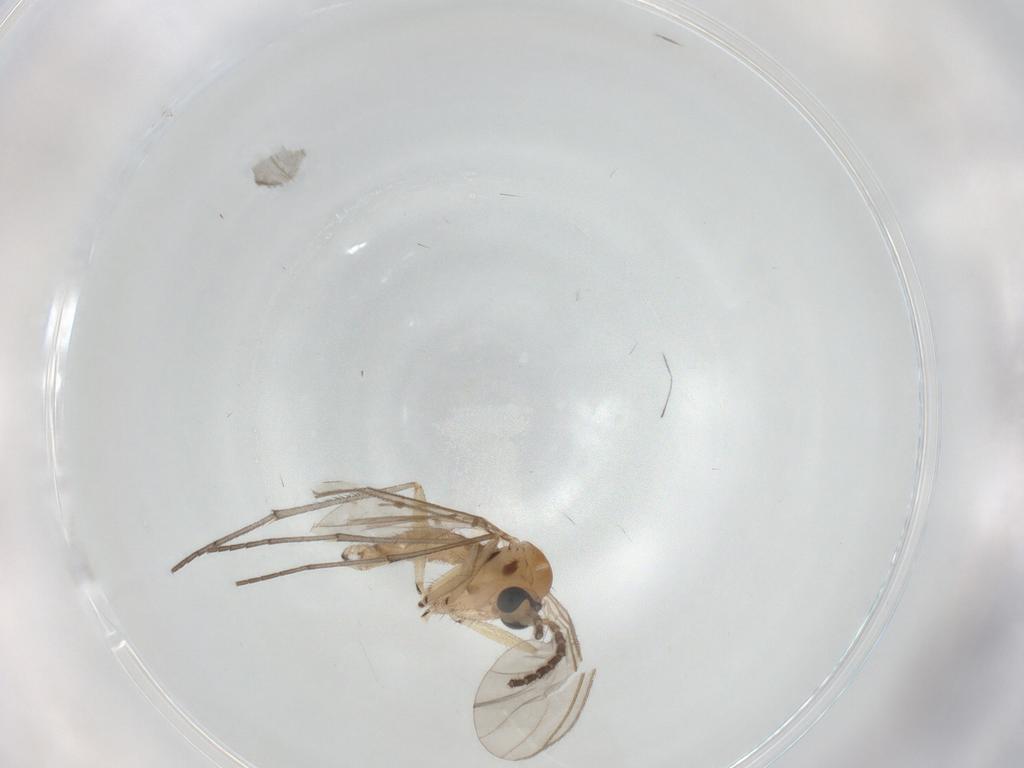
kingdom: Animalia
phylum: Arthropoda
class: Insecta
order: Diptera
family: Sciaridae
